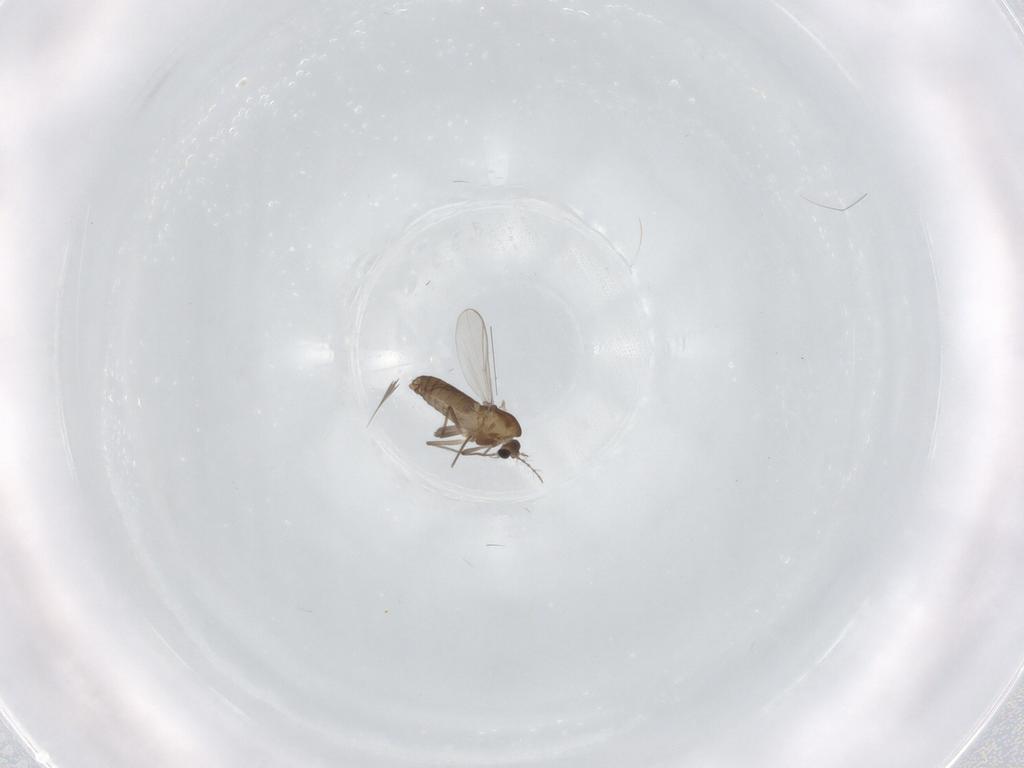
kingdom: Animalia
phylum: Arthropoda
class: Insecta
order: Diptera
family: Chironomidae
